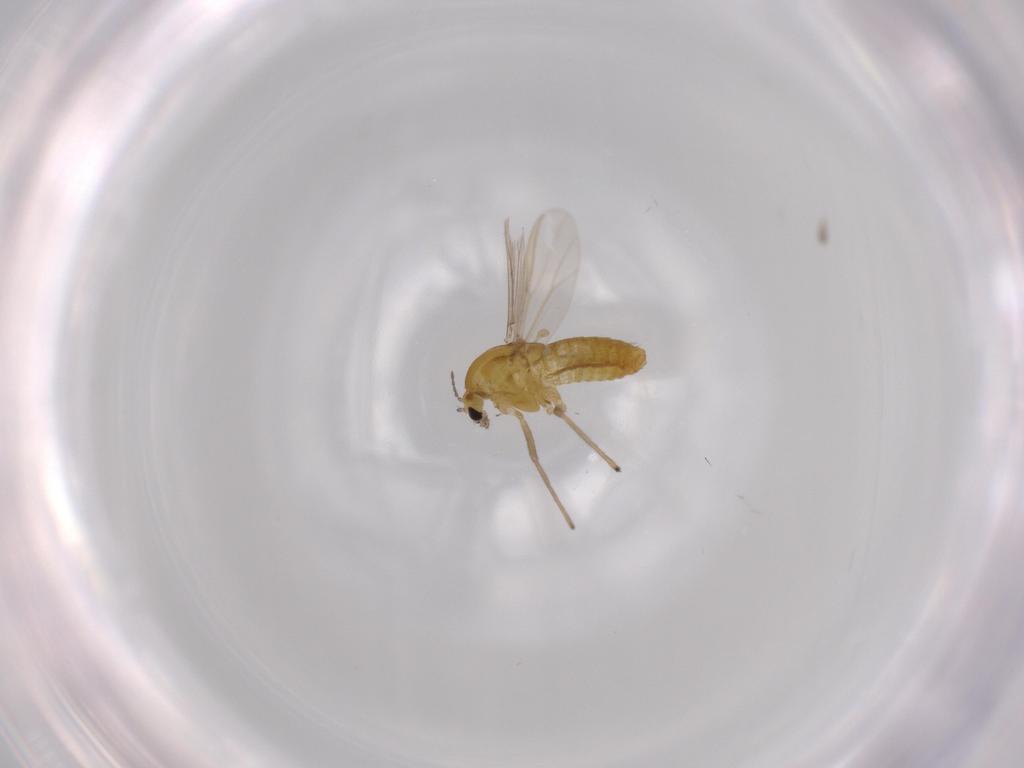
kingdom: Animalia
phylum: Arthropoda
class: Insecta
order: Diptera
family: Chironomidae
